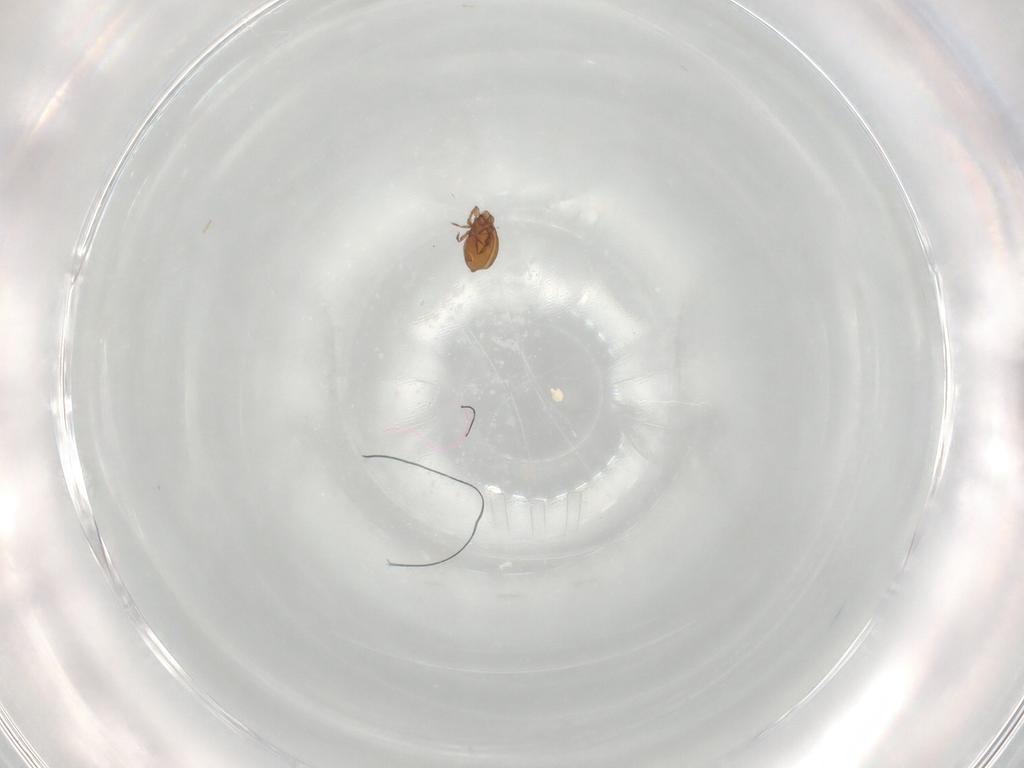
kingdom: Animalia
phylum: Arthropoda
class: Arachnida
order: Sarcoptiformes
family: Oribatulidae
